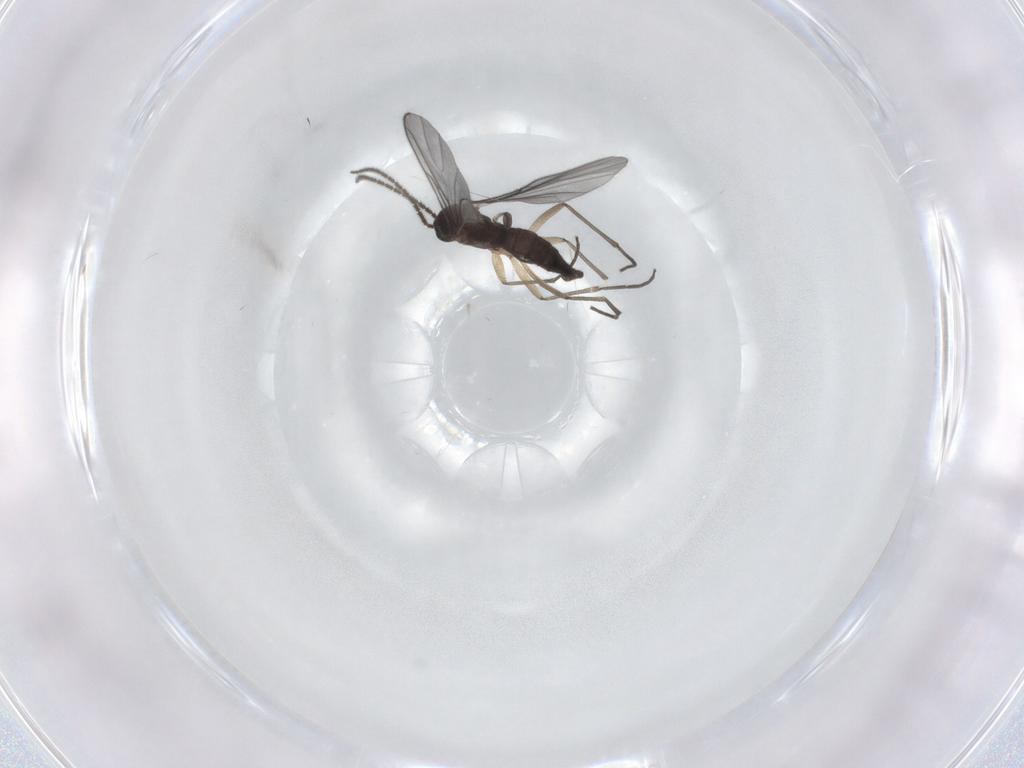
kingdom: Animalia
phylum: Arthropoda
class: Insecta
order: Diptera
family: Sciaridae
